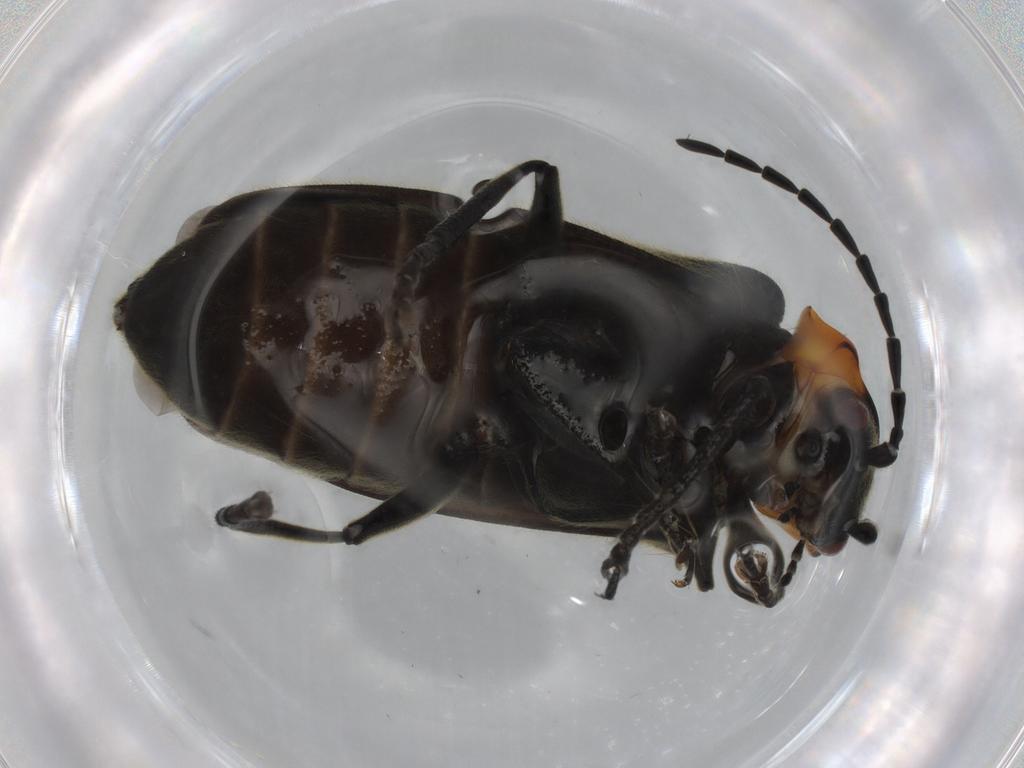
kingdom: Animalia
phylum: Arthropoda
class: Insecta
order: Coleoptera
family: Cantharidae
